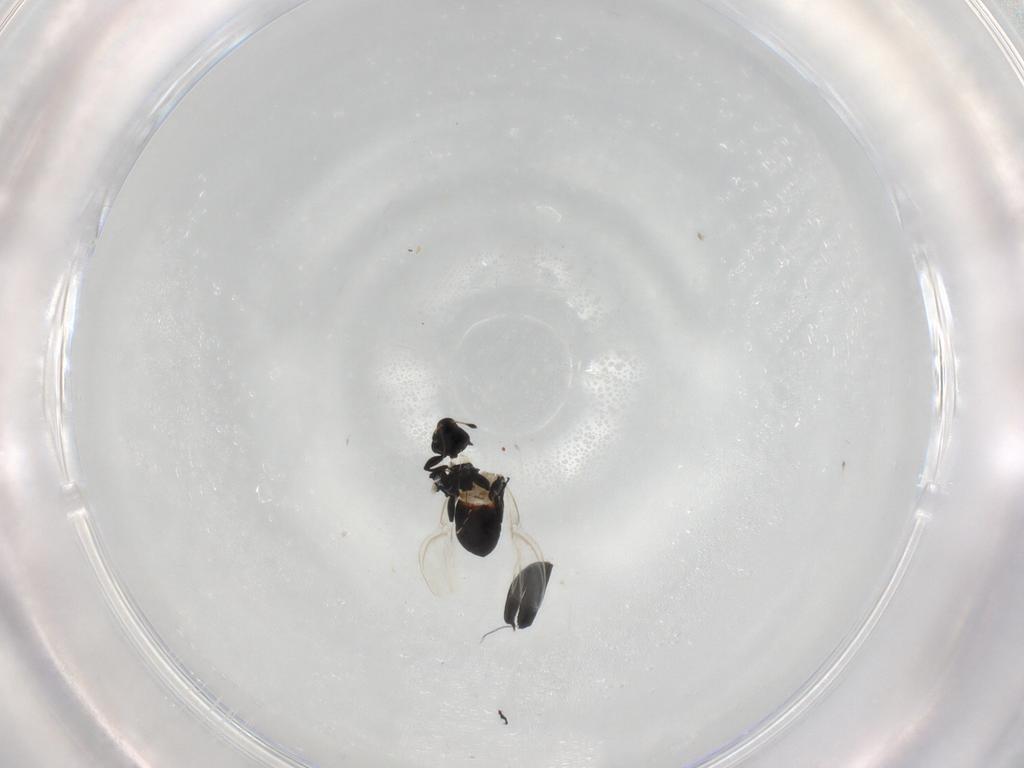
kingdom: Animalia
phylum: Arthropoda
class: Insecta
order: Coleoptera
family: Curculionidae
